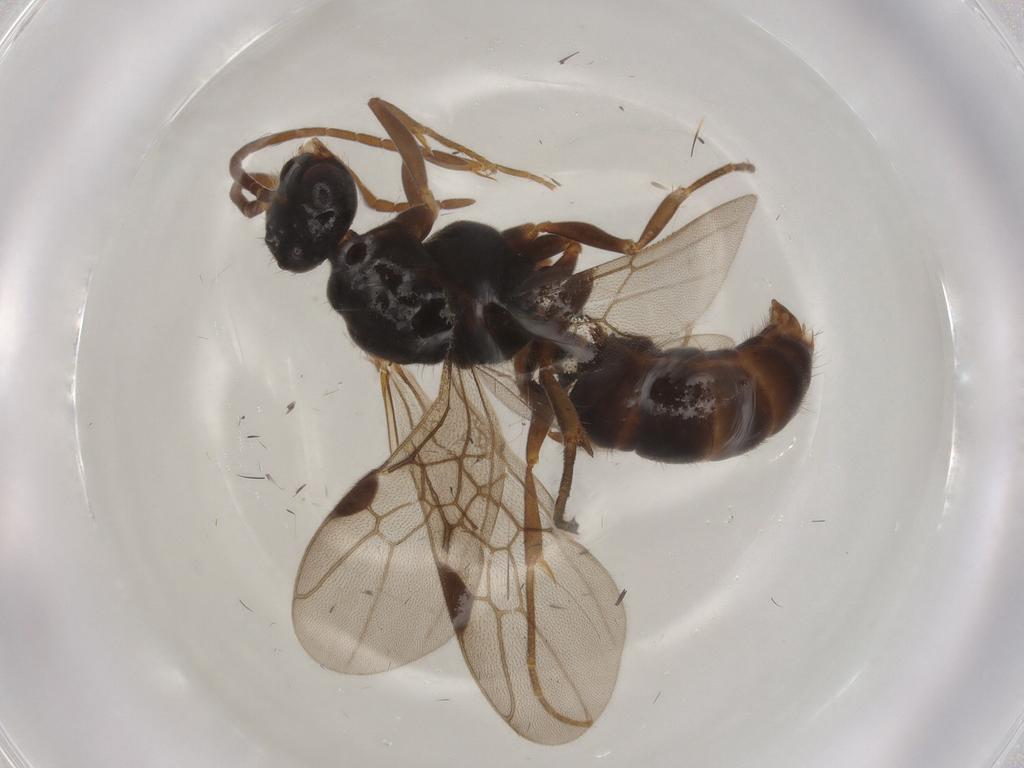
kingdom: Animalia
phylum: Arthropoda
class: Insecta
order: Hymenoptera
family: Formicidae
